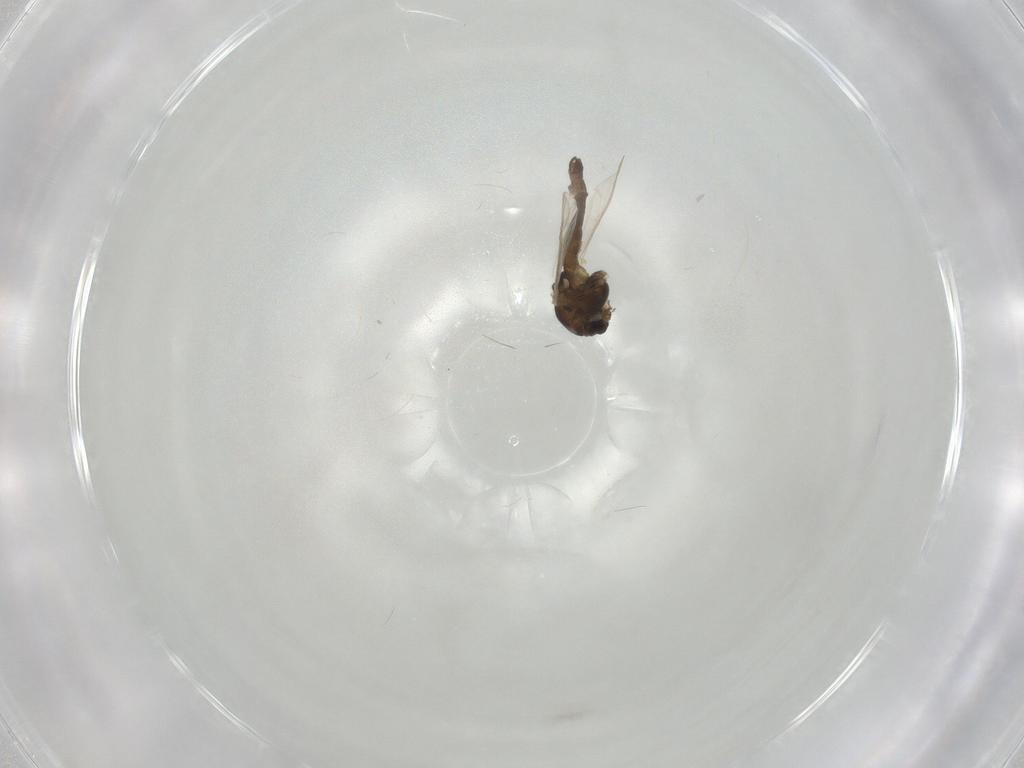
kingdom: Animalia
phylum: Arthropoda
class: Insecta
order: Diptera
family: Chironomidae
